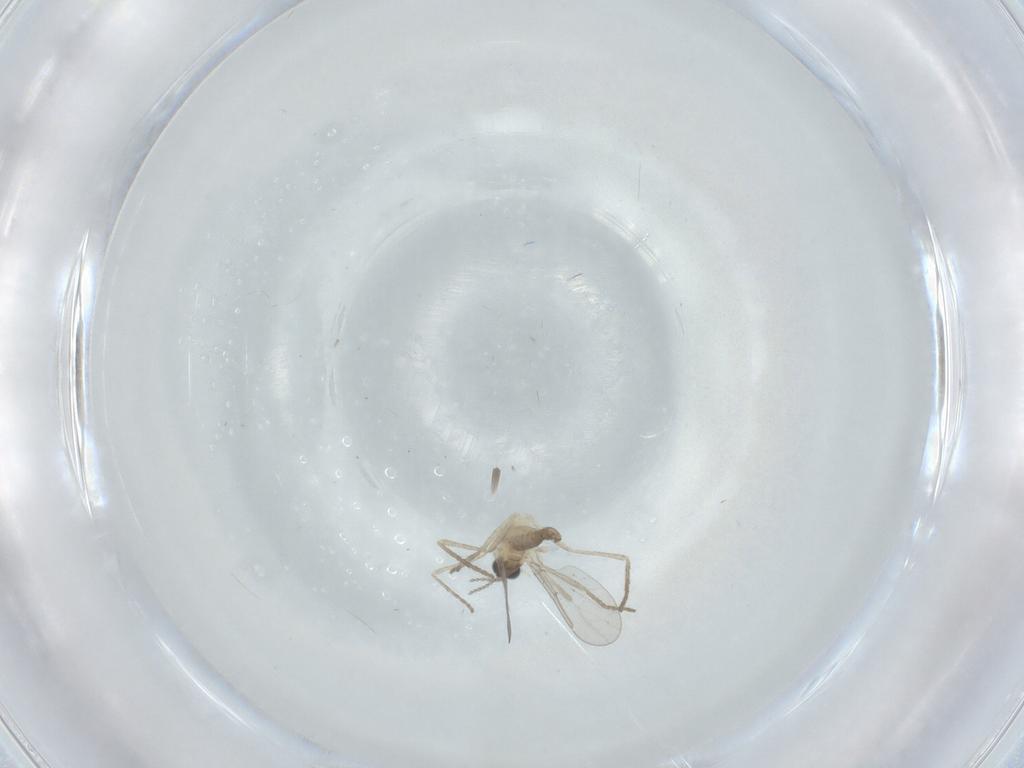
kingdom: Animalia
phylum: Arthropoda
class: Insecta
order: Diptera
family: Cecidomyiidae
